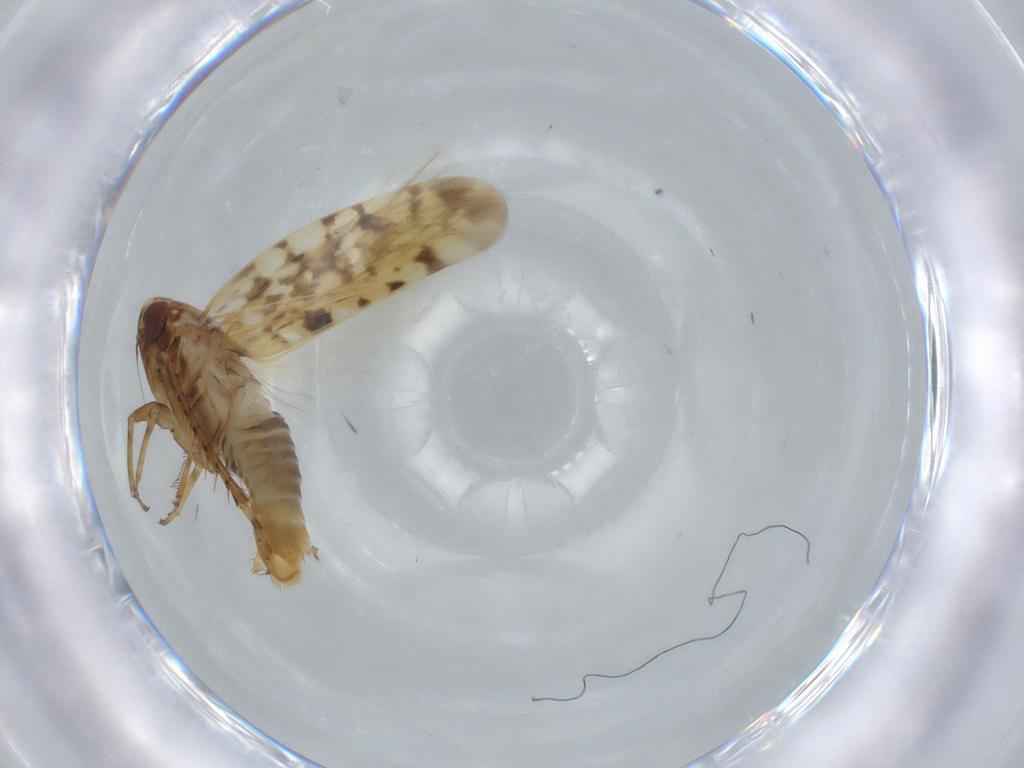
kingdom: Animalia
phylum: Arthropoda
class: Insecta
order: Hemiptera
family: Cicadellidae
